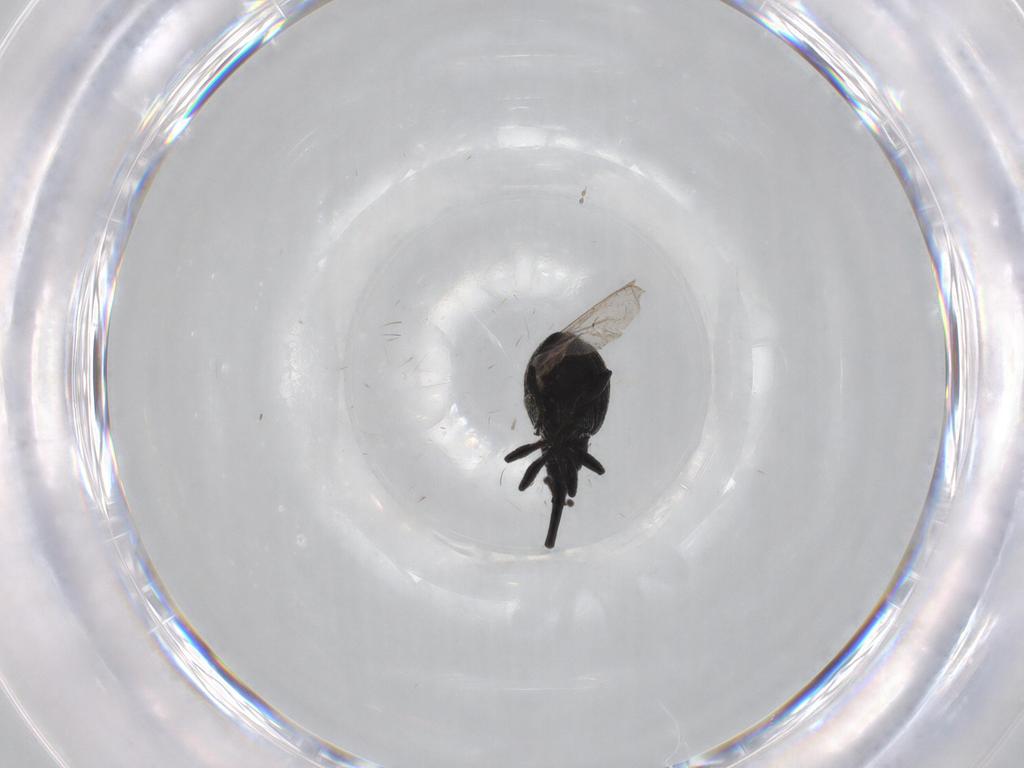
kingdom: Animalia
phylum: Arthropoda
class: Insecta
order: Coleoptera
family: Brentidae
